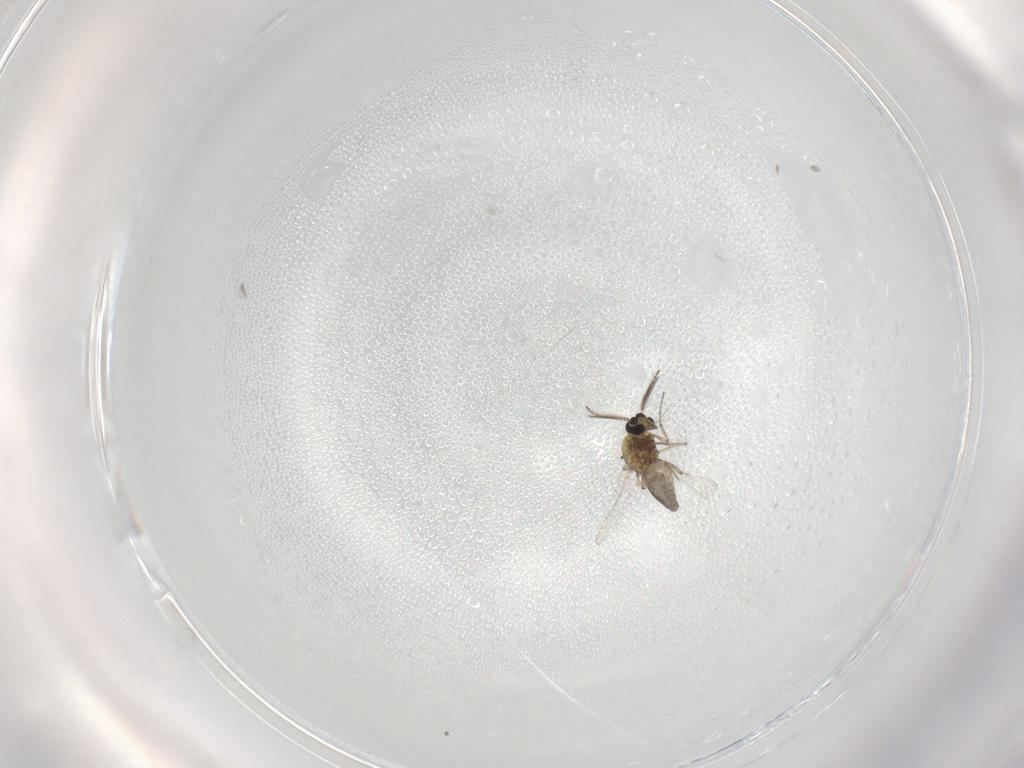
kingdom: Animalia
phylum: Arthropoda
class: Insecta
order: Diptera
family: Ceratopogonidae
